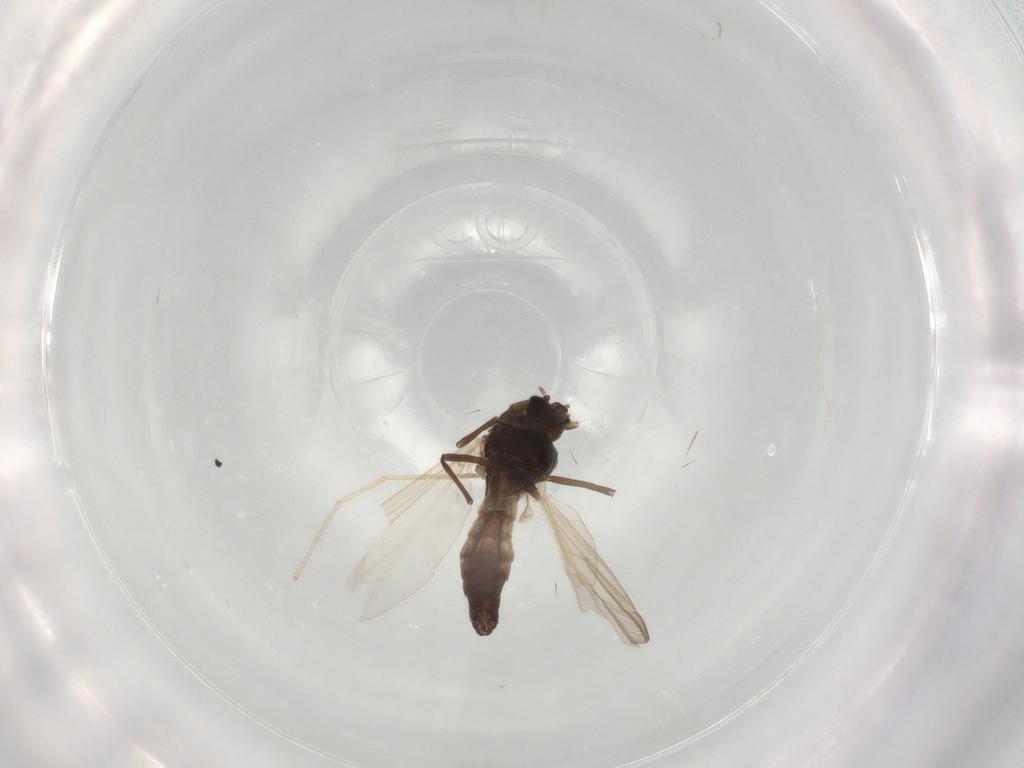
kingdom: Animalia
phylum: Arthropoda
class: Insecta
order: Diptera
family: Chironomidae
